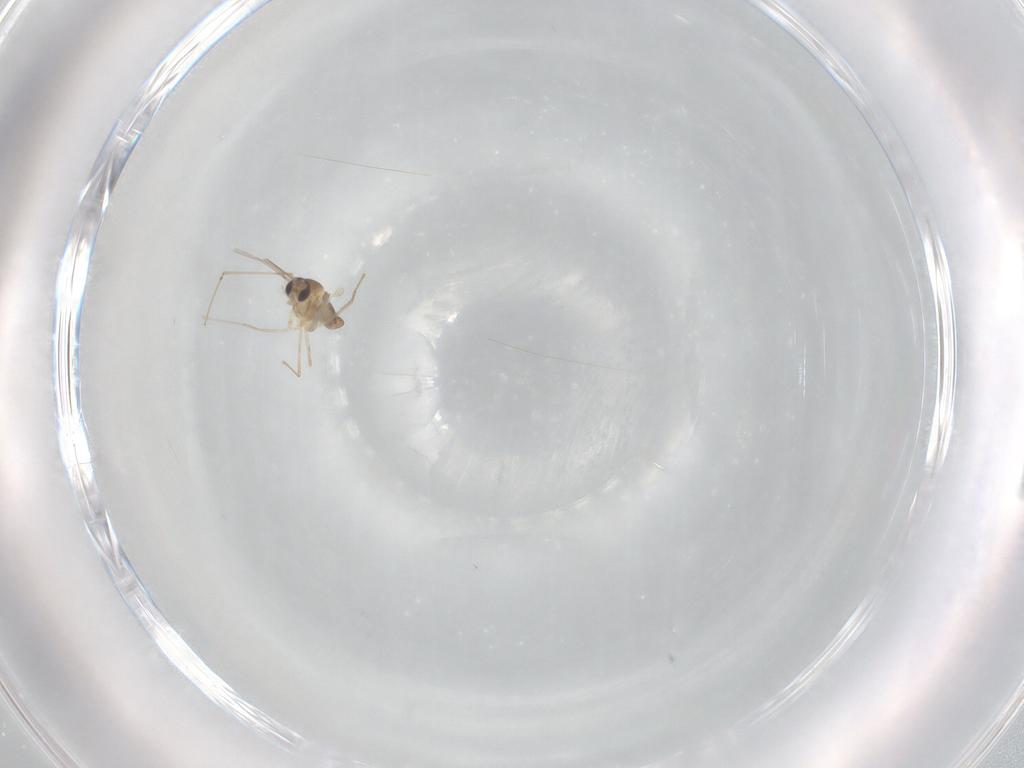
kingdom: Animalia
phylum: Arthropoda
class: Insecta
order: Diptera
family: Cecidomyiidae
